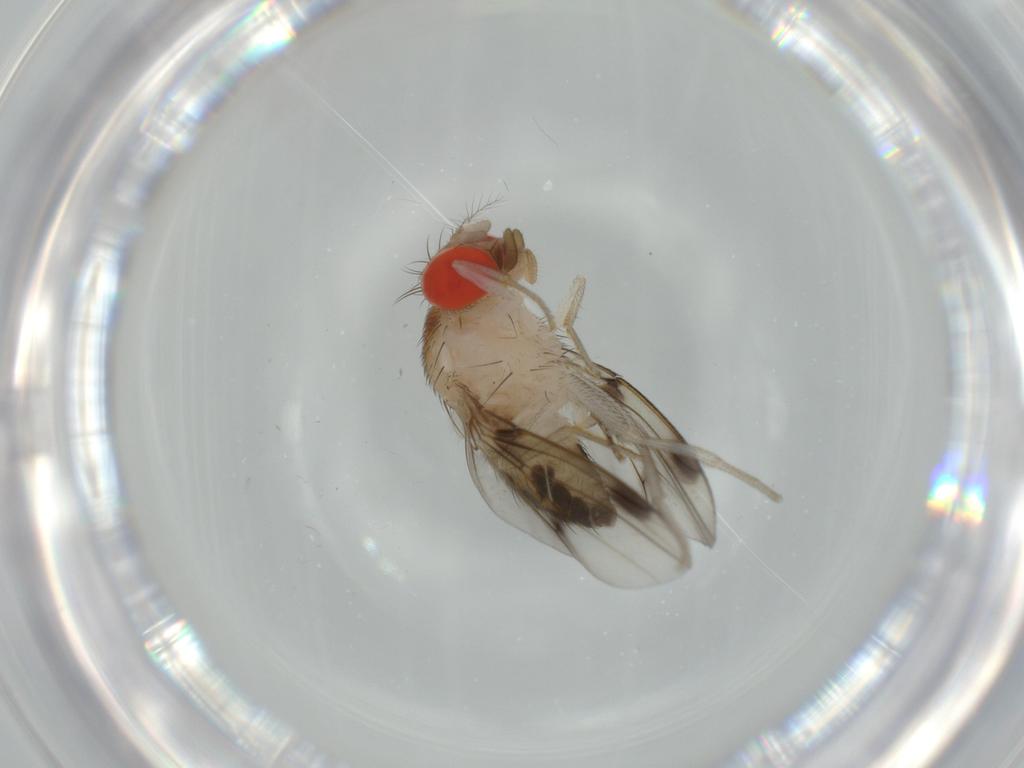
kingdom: Animalia
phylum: Arthropoda
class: Insecta
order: Diptera
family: Drosophilidae
